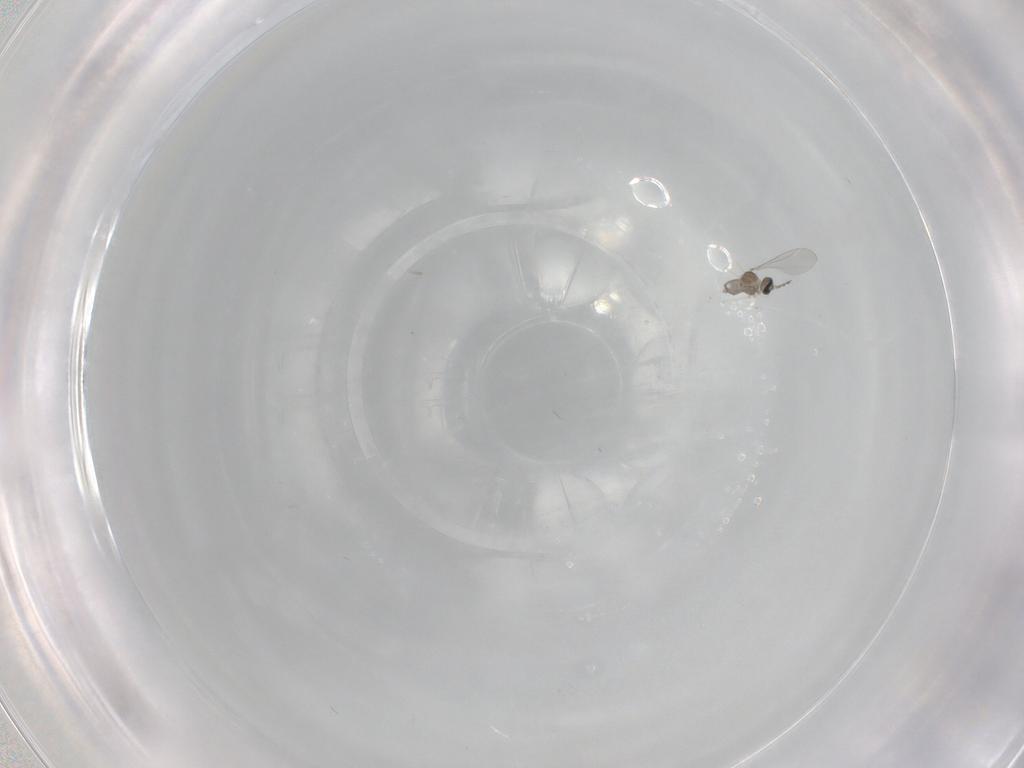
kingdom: Animalia
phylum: Arthropoda
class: Insecta
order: Diptera
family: Cecidomyiidae
